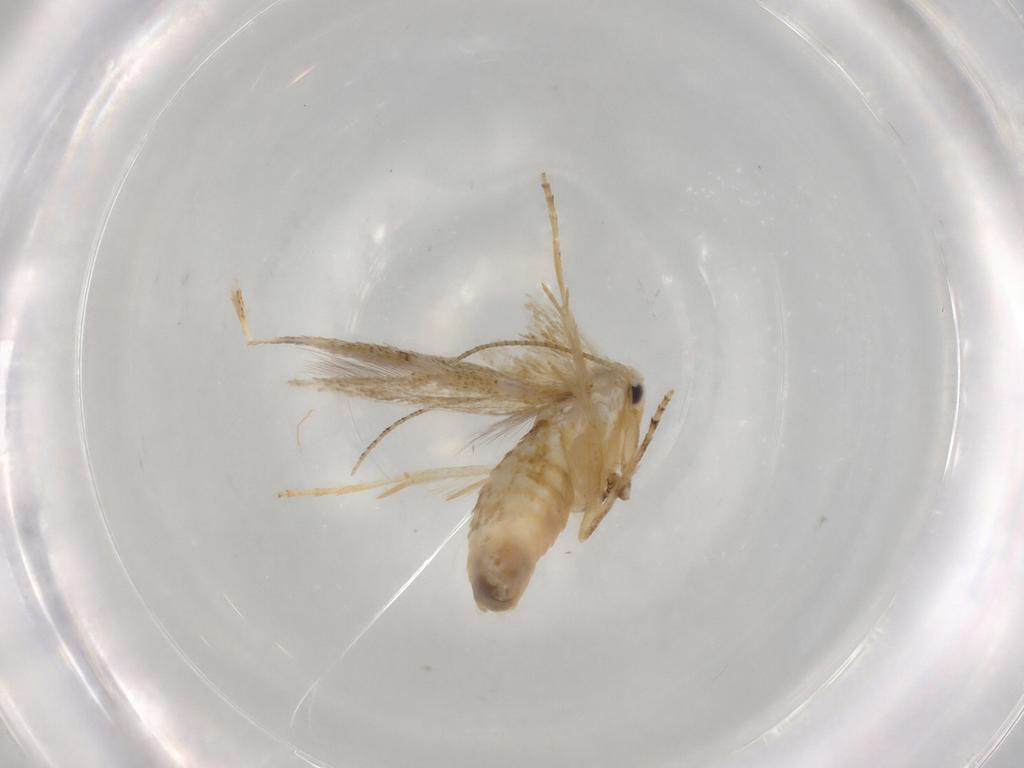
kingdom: Animalia
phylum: Arthropoda
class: Insecta
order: Lepidoptera
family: Bucculatricidae
